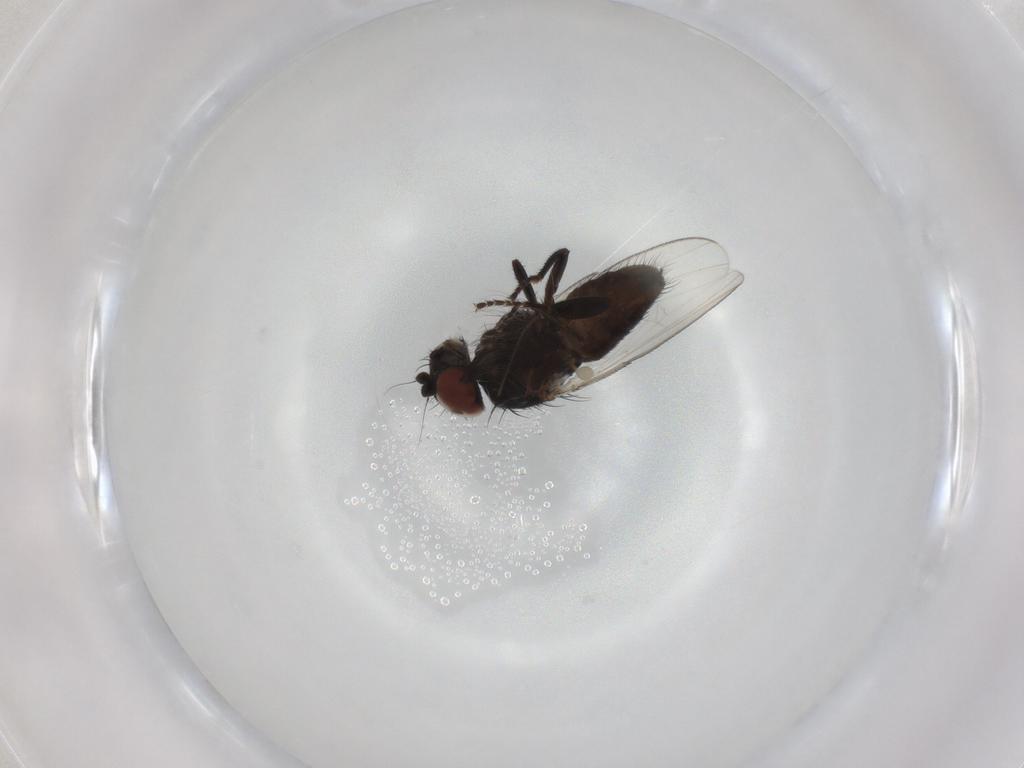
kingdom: Animalia
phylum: Arthropoda
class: Insecta
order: Diptera
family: Milichiidae
